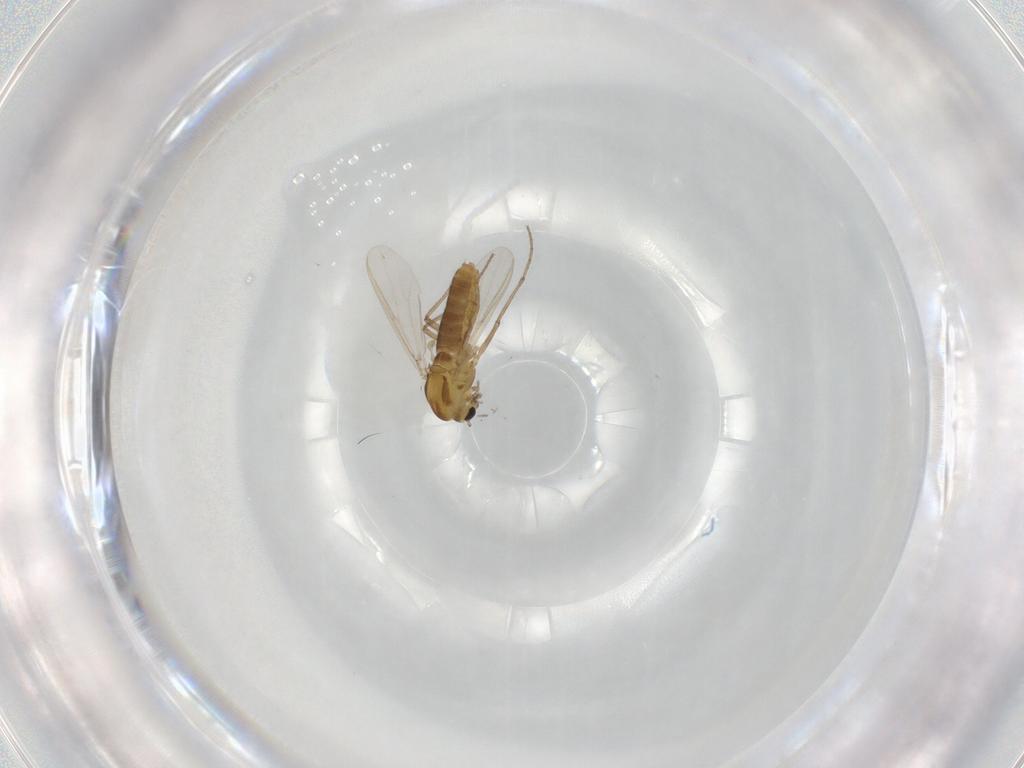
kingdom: Animalia
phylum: Arthropoda
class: Insecta
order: Diptera
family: Chironomidae
